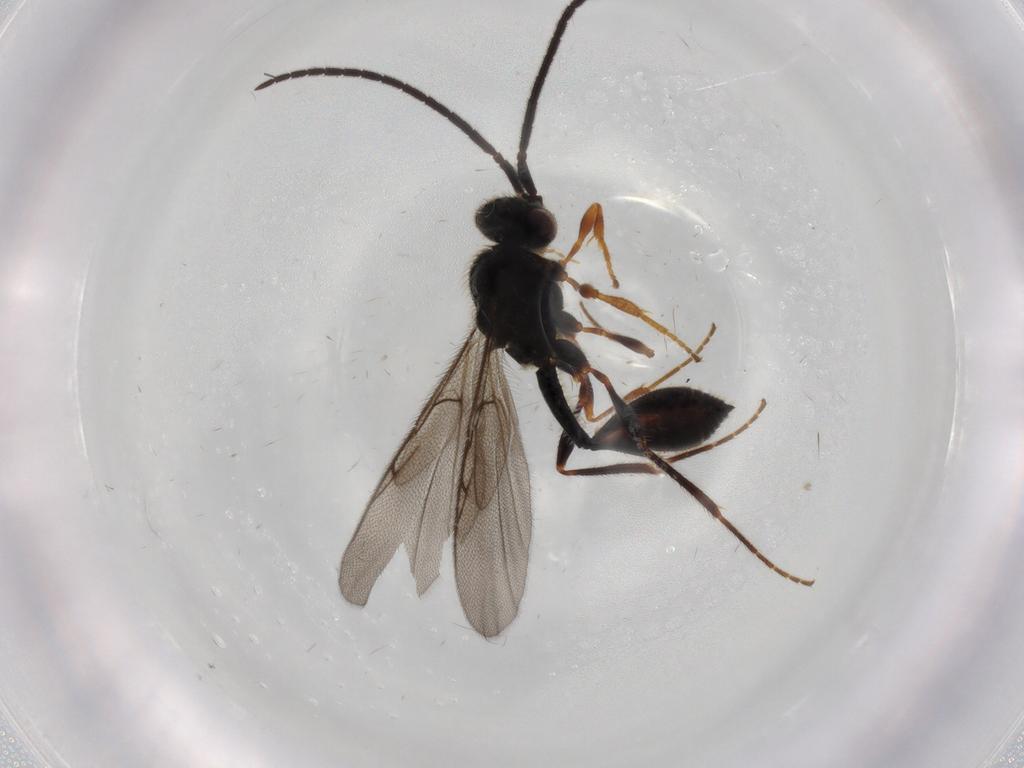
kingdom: Animalia
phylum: Arthropoda
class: Insecta
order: Hymenoptera
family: Diapriidae
